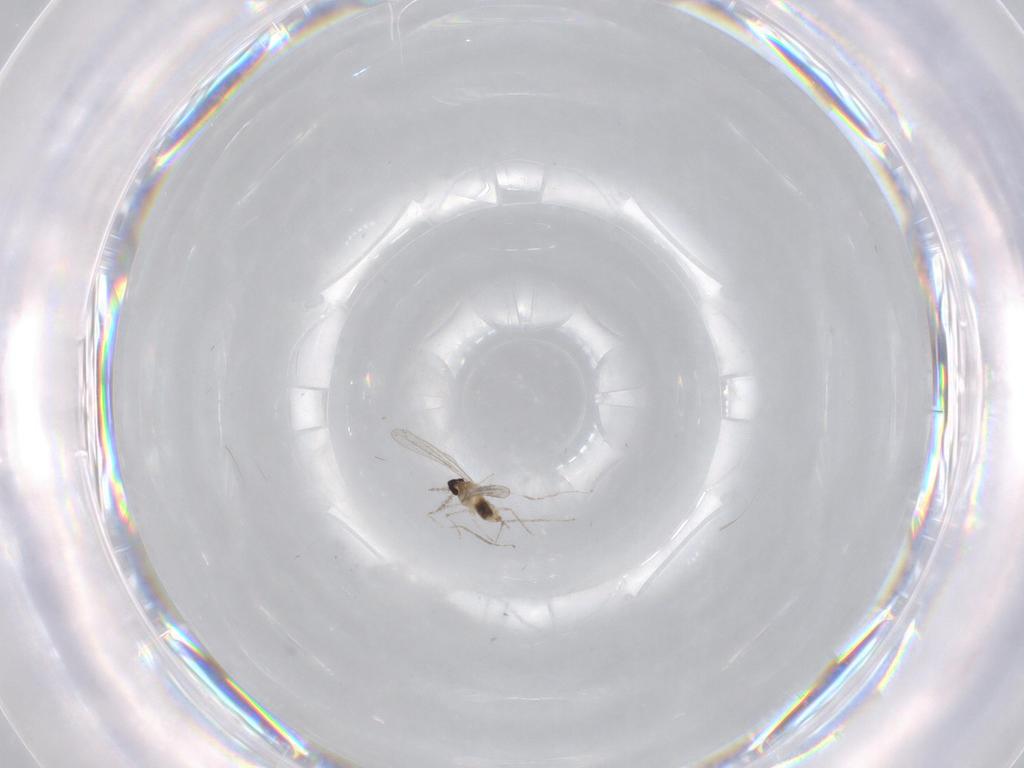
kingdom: Animalia
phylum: Arthropoda
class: Insecta
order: Diptera
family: Cecidomyiidae
